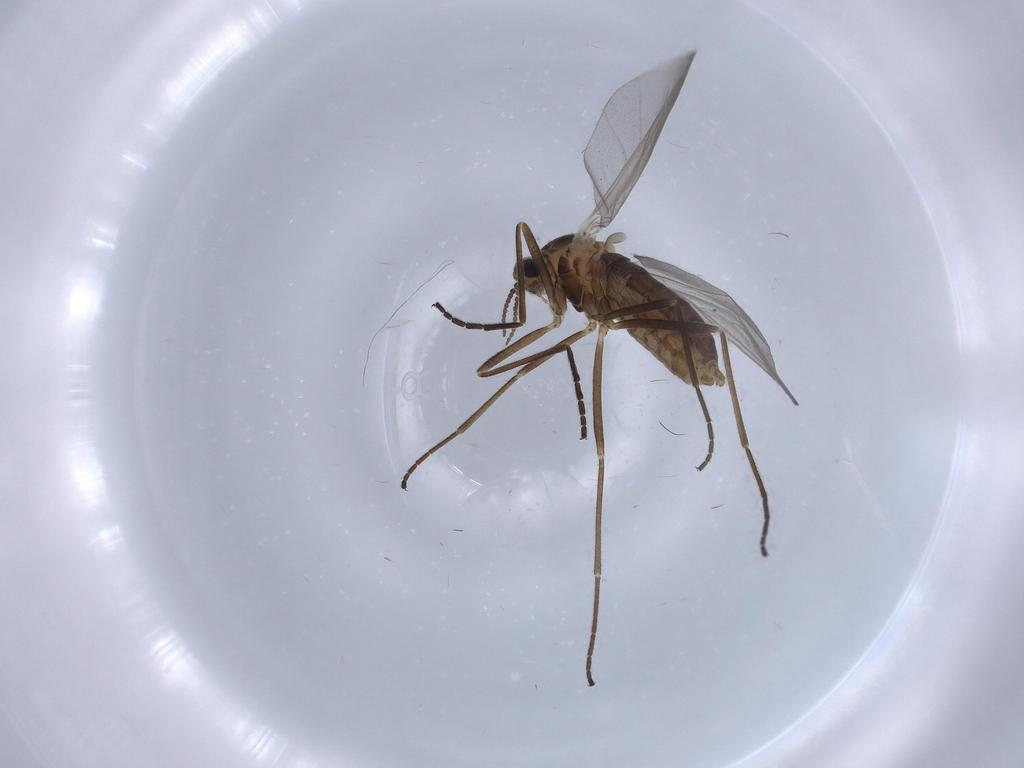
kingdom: Animalia
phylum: Arthropoda
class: Insecta
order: Diptera
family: Cecidomyiidae
